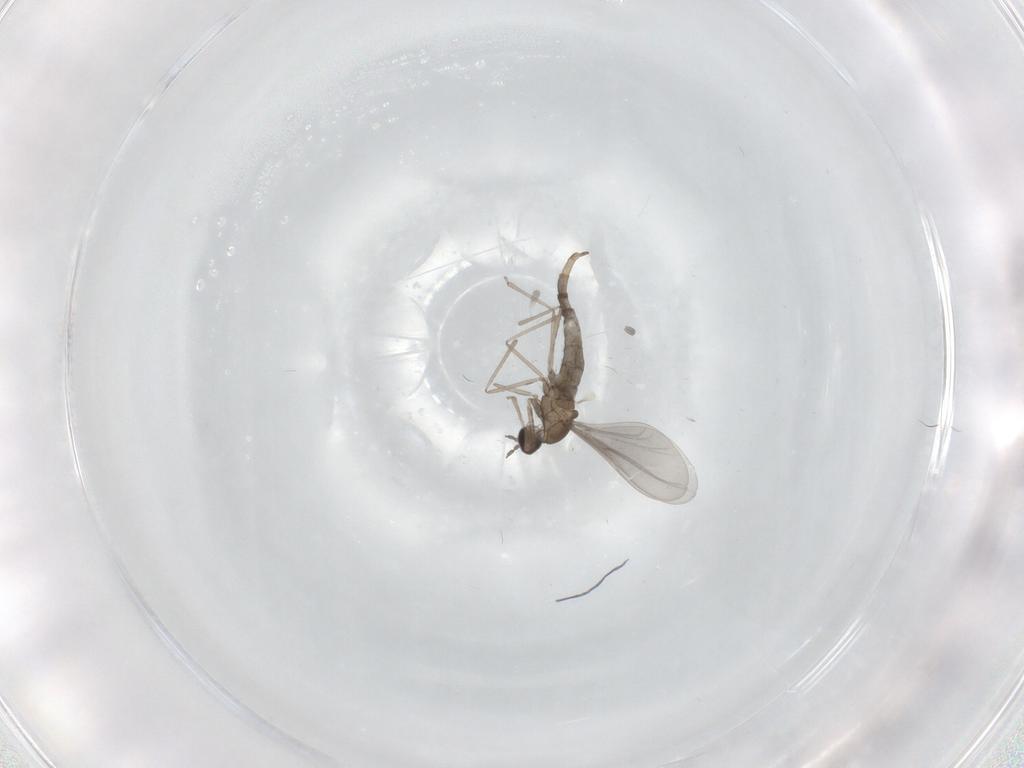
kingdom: Animalia
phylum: Arthropoda
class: Insecta
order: Diptera
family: Cecidomyiidae
